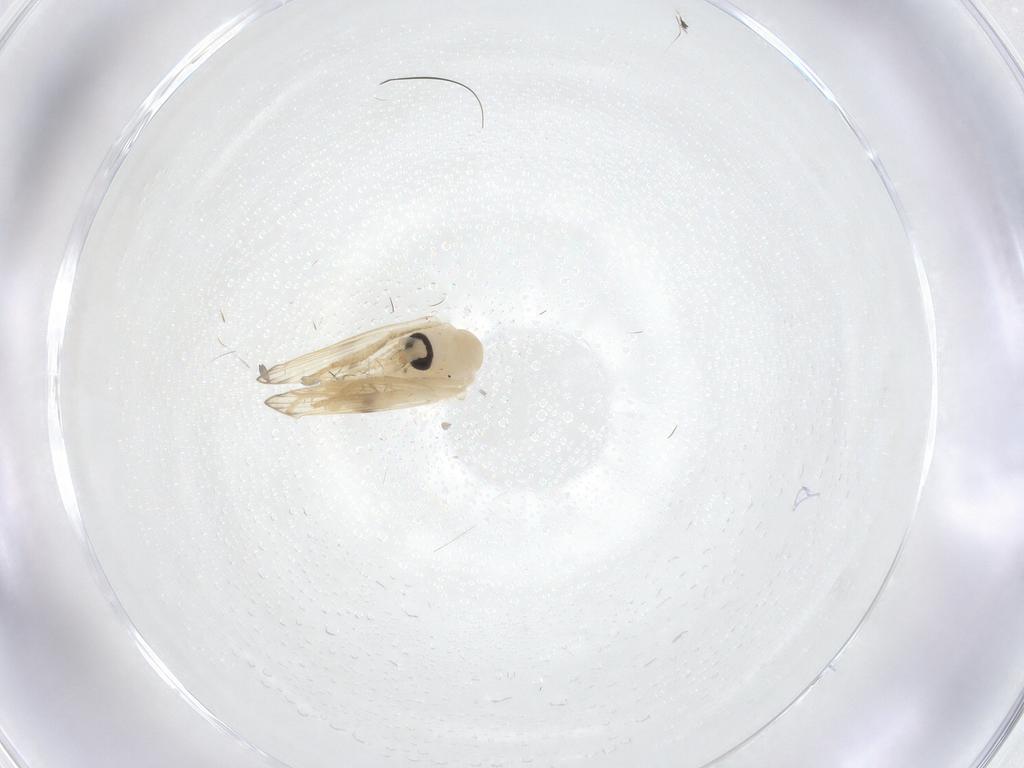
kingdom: Animalia
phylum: Arthropoda
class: Insecta
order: Diptera
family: Psychodidae
